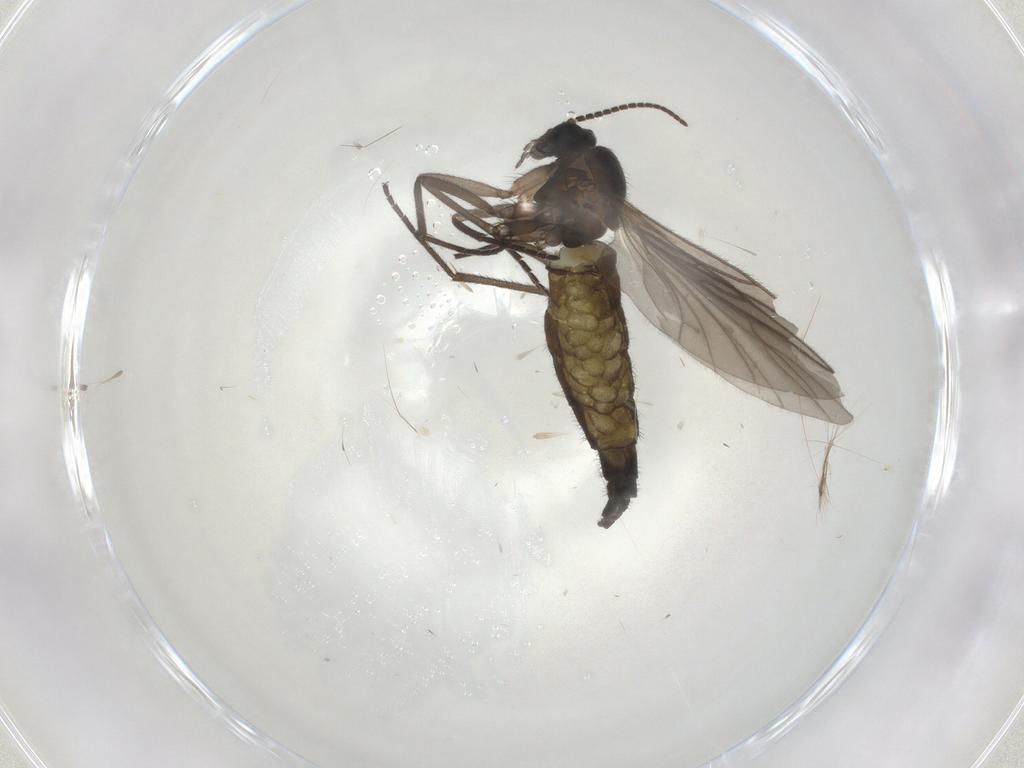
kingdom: Animalia
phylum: Arthropoda
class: Insecta
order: Diptera
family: Sciaridae
